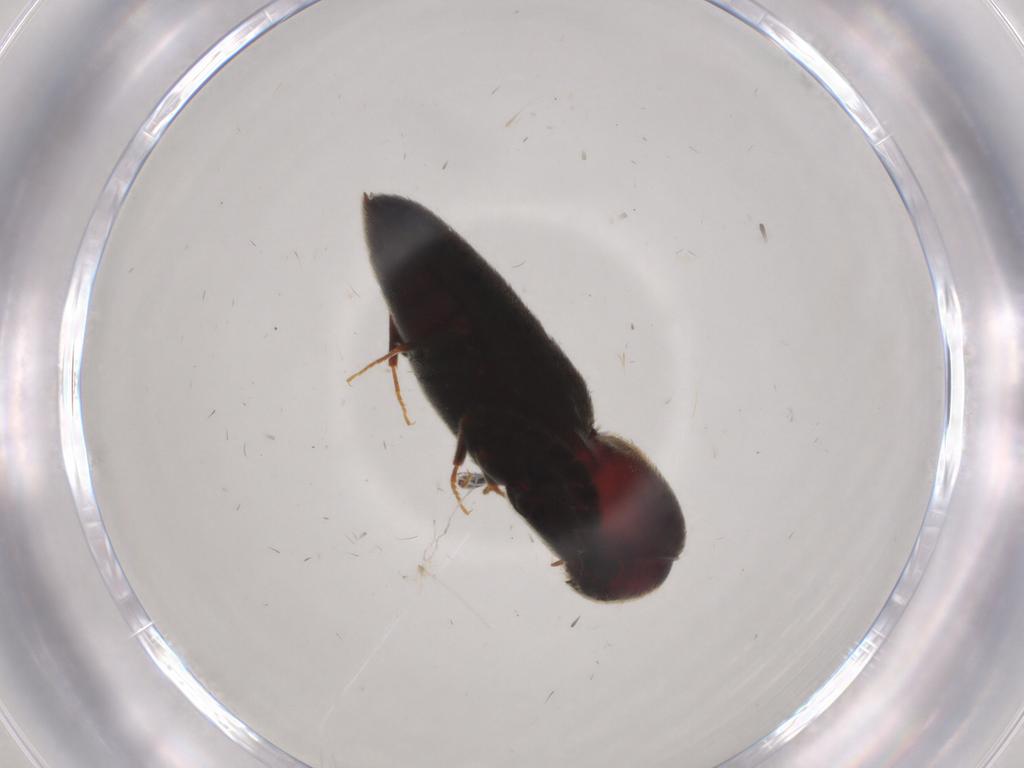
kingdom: Animalia
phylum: Arthropoda
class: Insecta
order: Coleoptera
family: Eucnemidae
